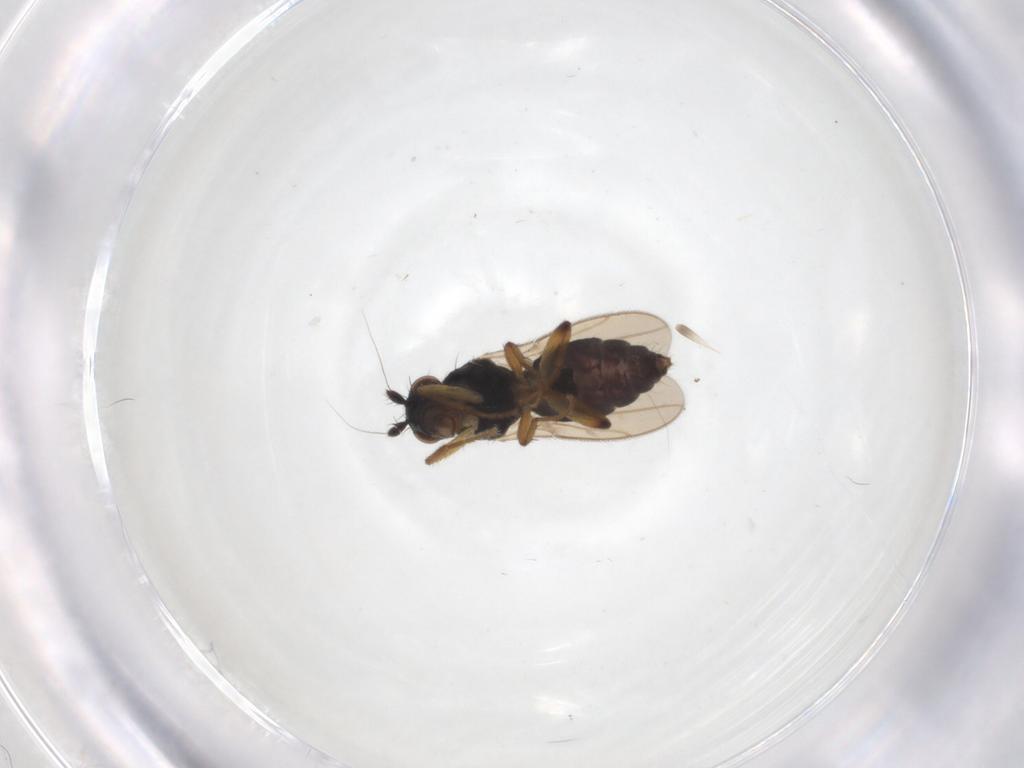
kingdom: Animalia
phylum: Arthropoda
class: Insecta
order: Diptera
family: Sphaeroceridae
